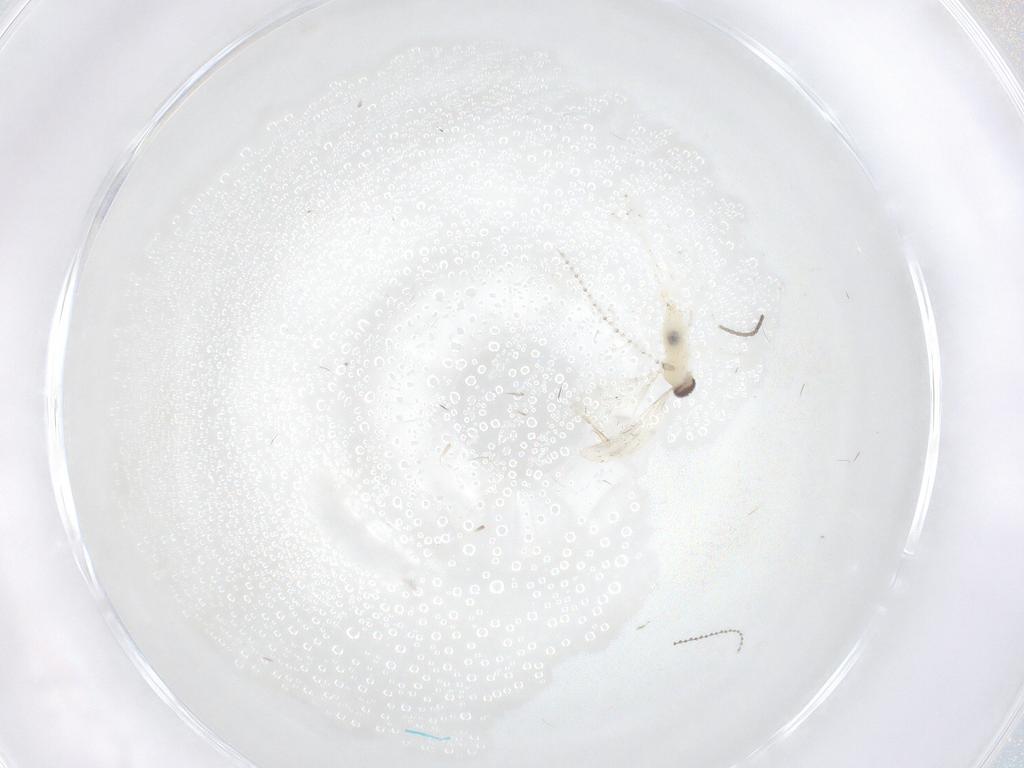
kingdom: Animalia
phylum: Arthropoda
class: Insecta
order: Diptera
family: Cecidomyiidae
